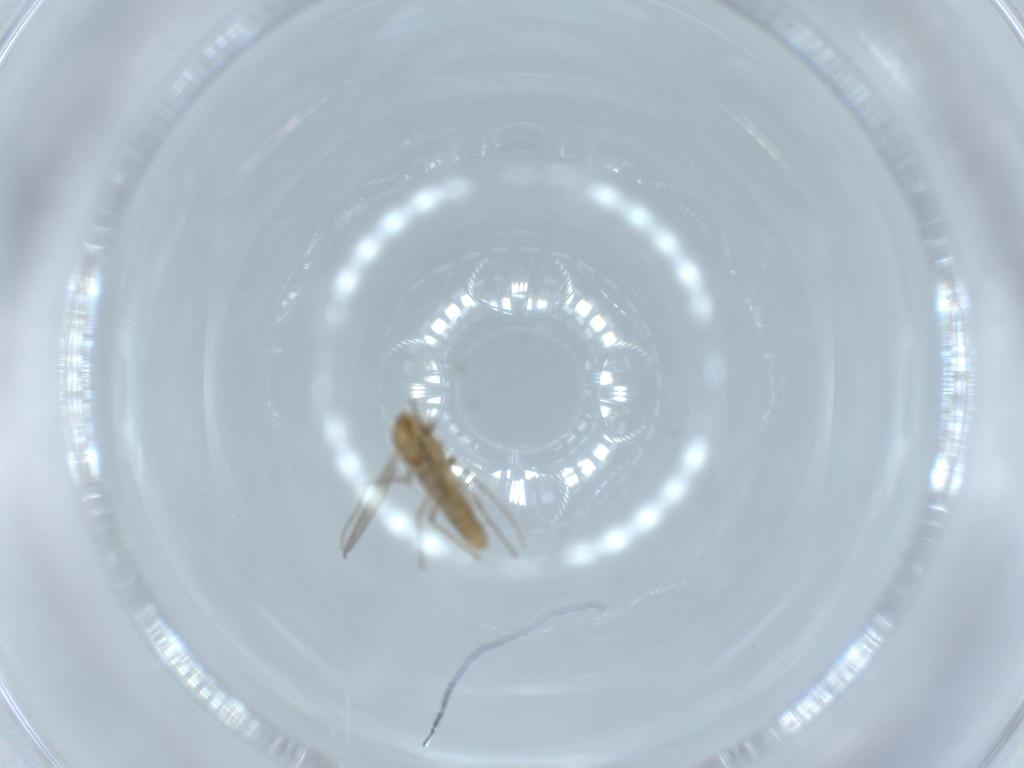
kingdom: Animalia
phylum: Arthropoda
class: Insecta
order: Diptera
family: Chironomidae
